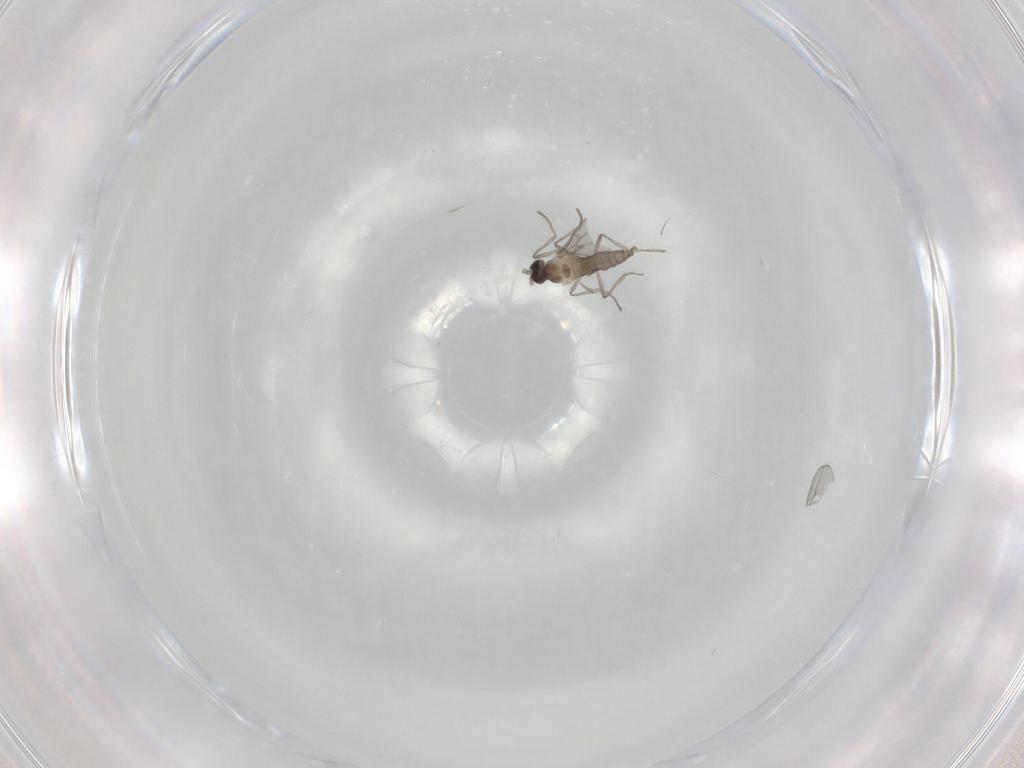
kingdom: Animalia
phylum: Arthropoda
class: Insecta
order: Diptera
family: Cecidomyiidae
